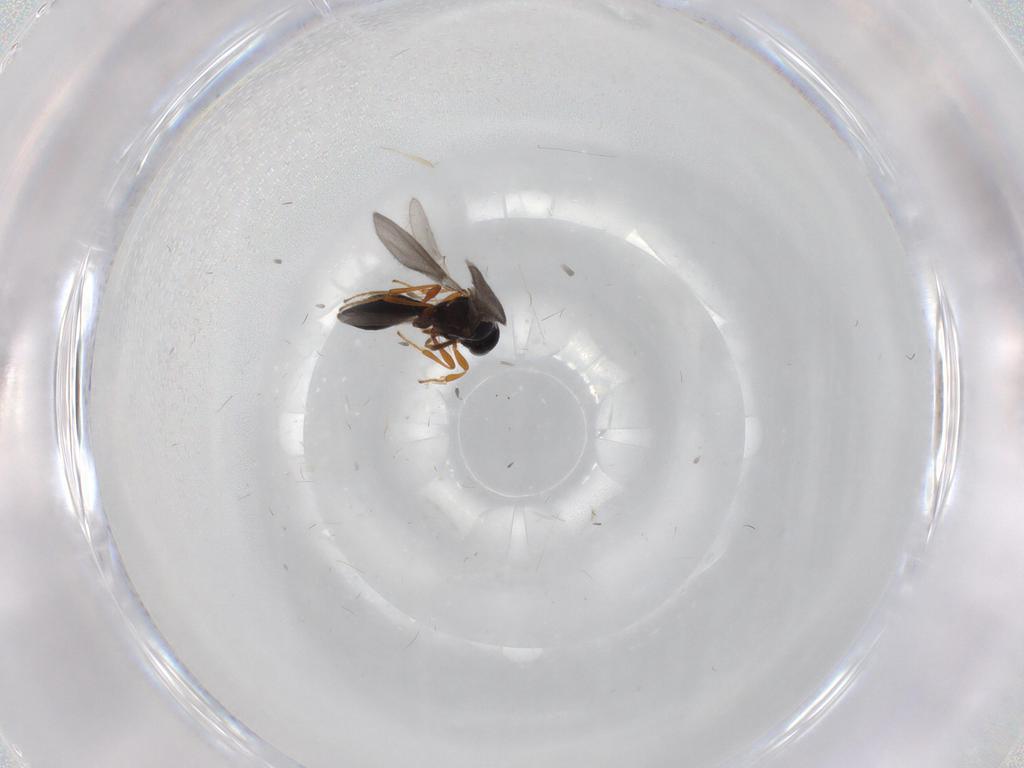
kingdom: Animalia
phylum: Arthropoda
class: Insecta
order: Hymenoptera
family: Platygastridae
